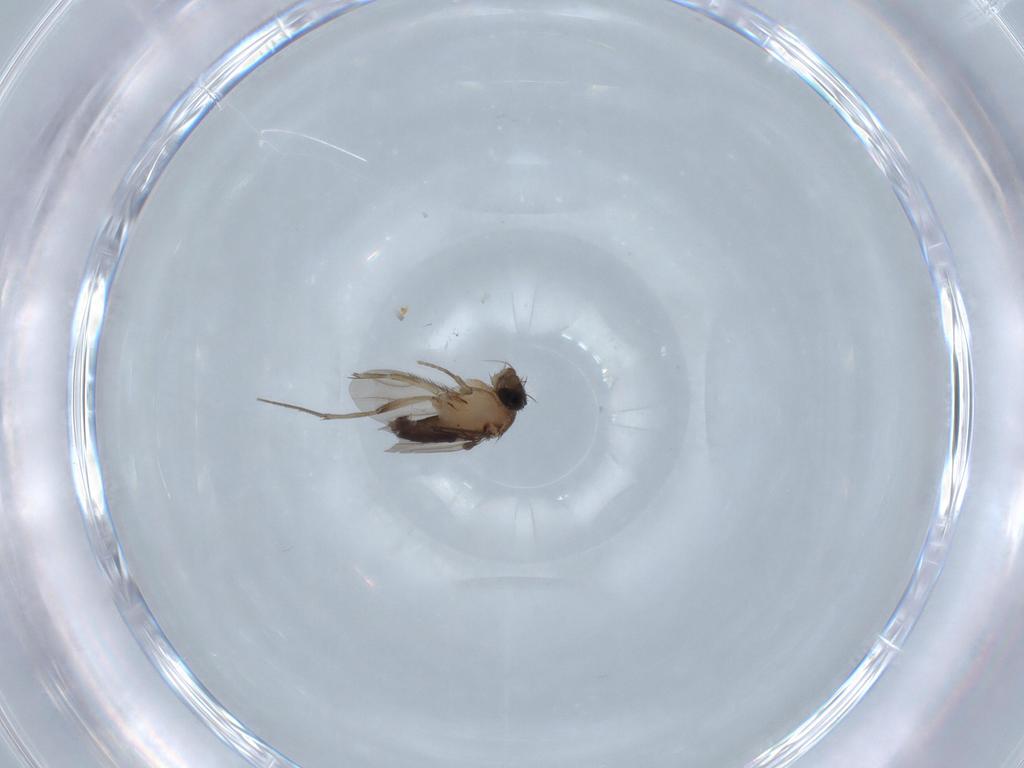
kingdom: Animalia
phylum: Arthropoda
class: Insecta
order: Diptera
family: Phoridae
